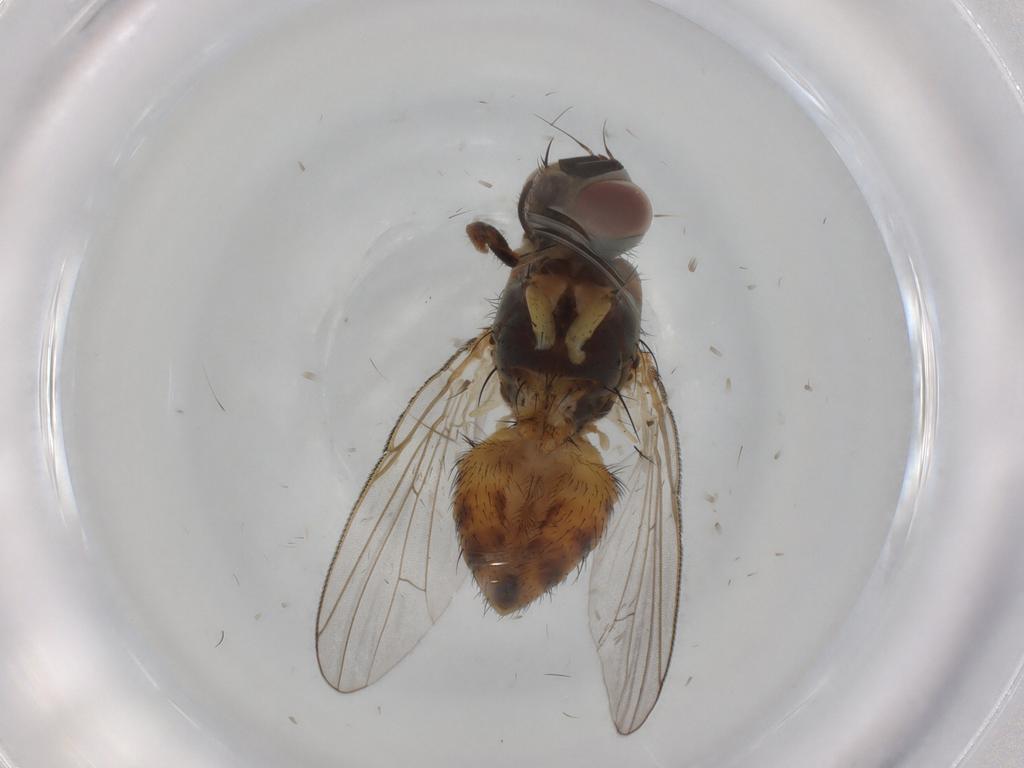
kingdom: Animalia
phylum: Arthropoda
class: Insecta
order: Diptera
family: Muscidae
